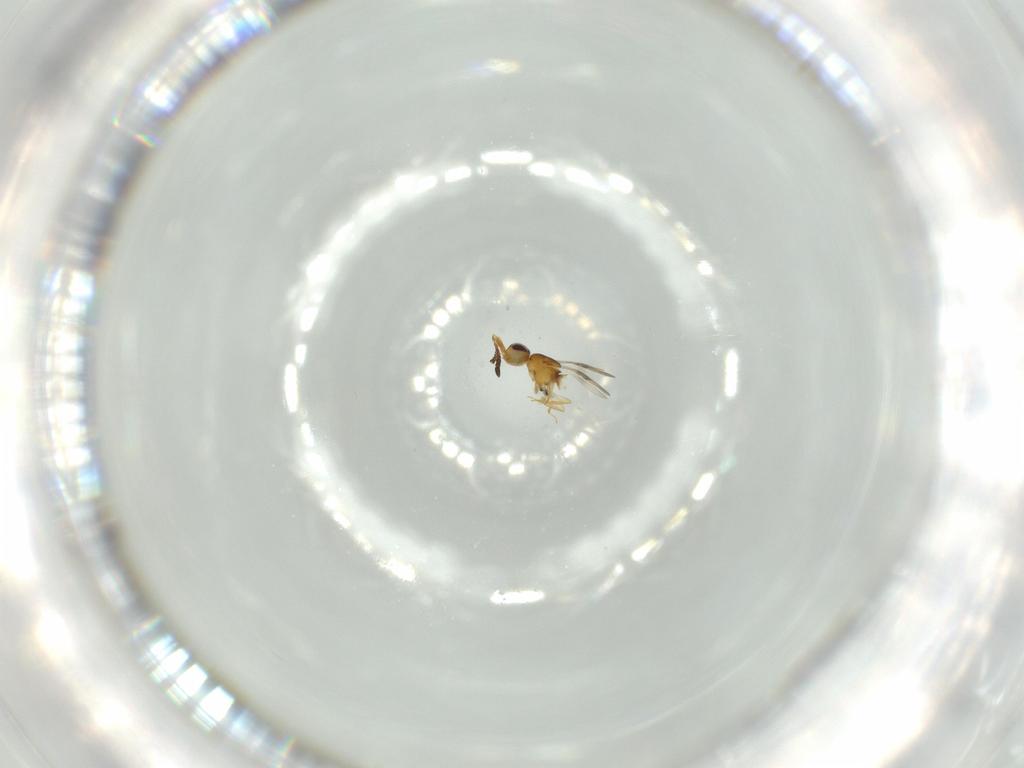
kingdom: Animalia
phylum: Arthropoda
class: Insecta
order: Hymenoptera
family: Ceraphronidae
